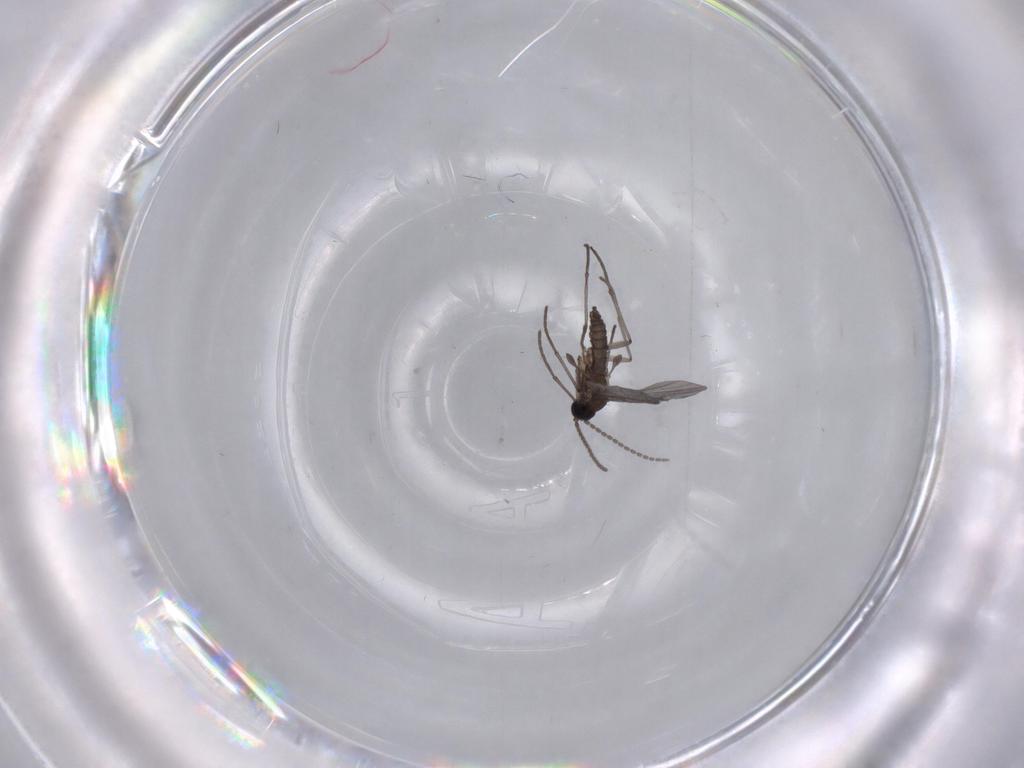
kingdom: Animalia
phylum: Arthropoda
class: Insecta
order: Diptera
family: Sciaridae
